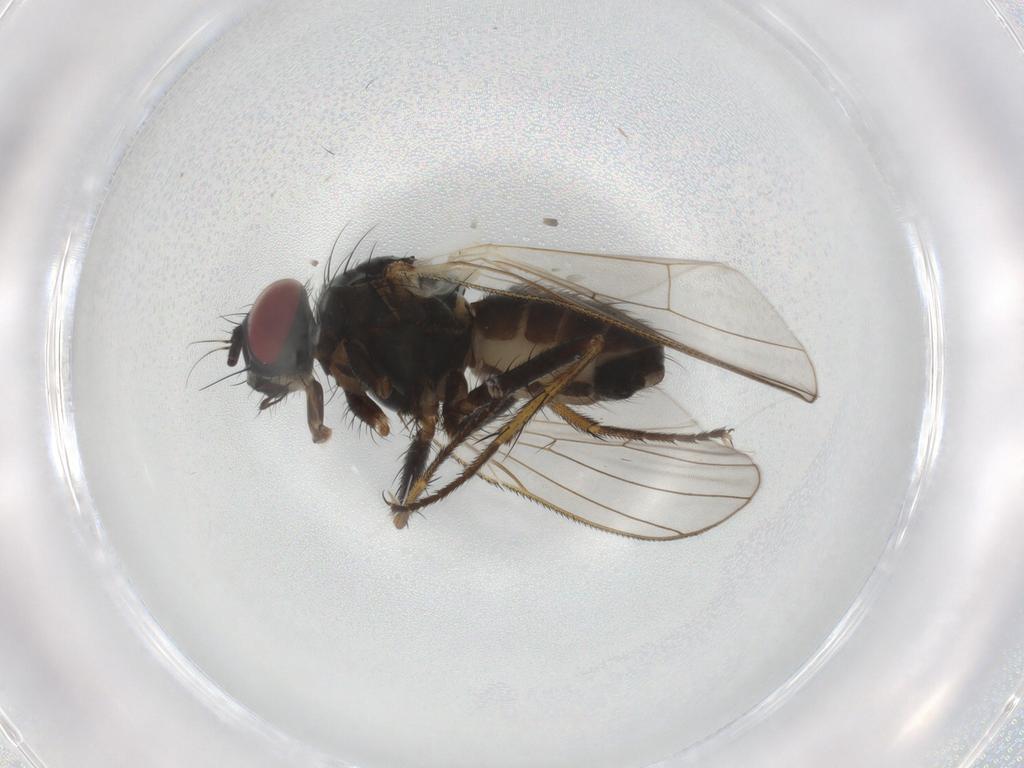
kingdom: Animalia
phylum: Arthropoda
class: Insecta
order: Diptera
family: Muscidae
